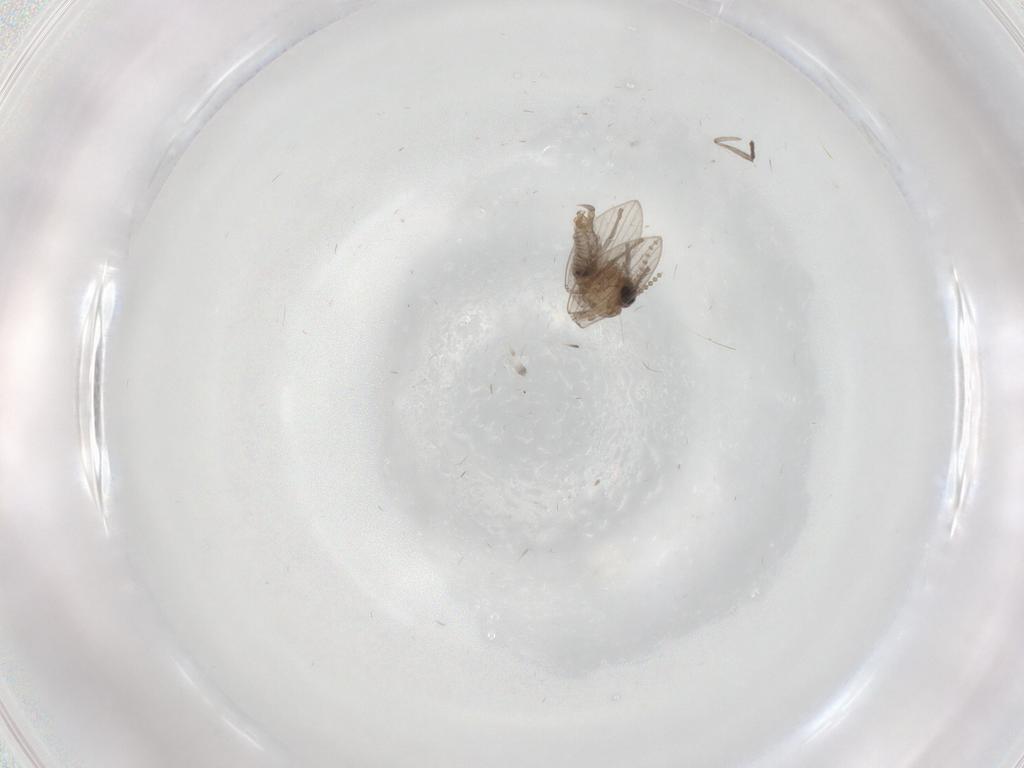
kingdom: Animalia
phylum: Arthropoda
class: Insecta
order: Diptera
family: Psychodidae
